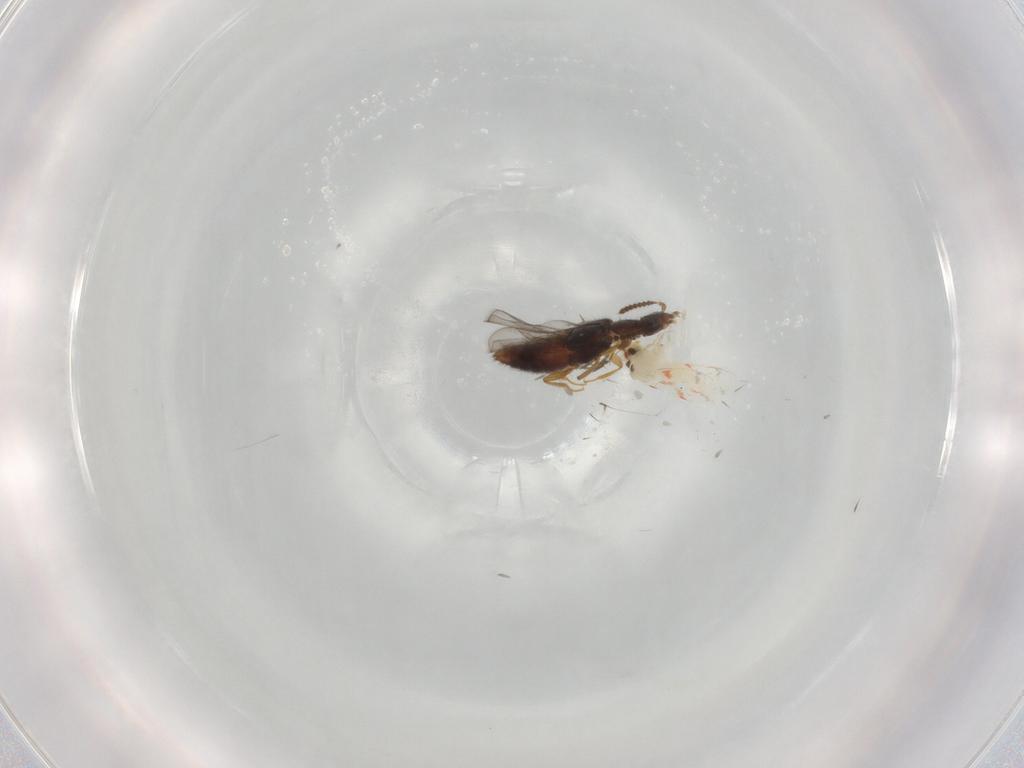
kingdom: Animalia
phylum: Arthropoda
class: Insecta
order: Coleoptera
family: Staphylinidae
